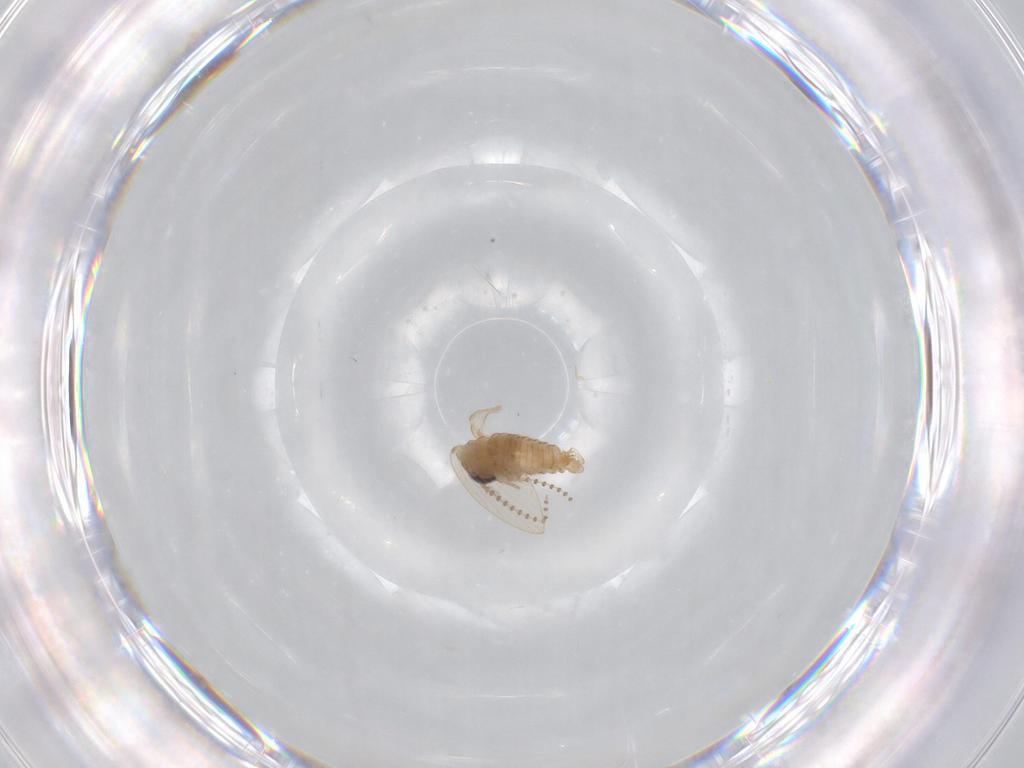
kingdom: Animalia
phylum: Arthropoda
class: Insecta
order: Diptera
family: Psychodidae
